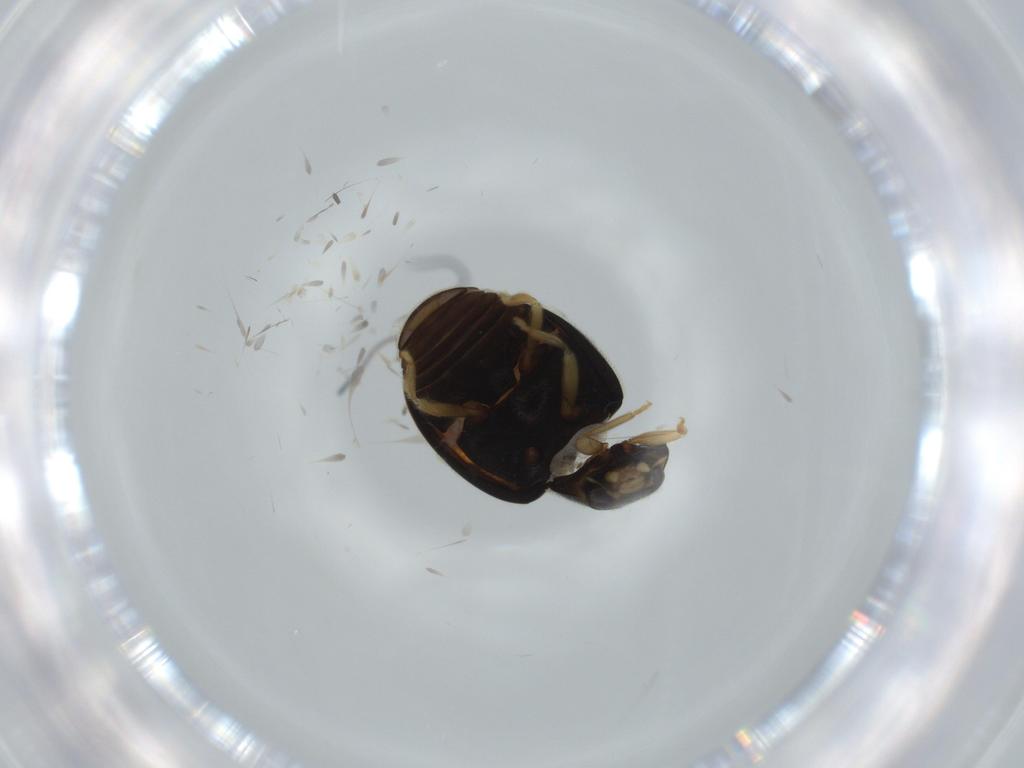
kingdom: Animalia
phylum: Arthropoda
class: Insecta
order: Coleoptera
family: Coccinellidae
